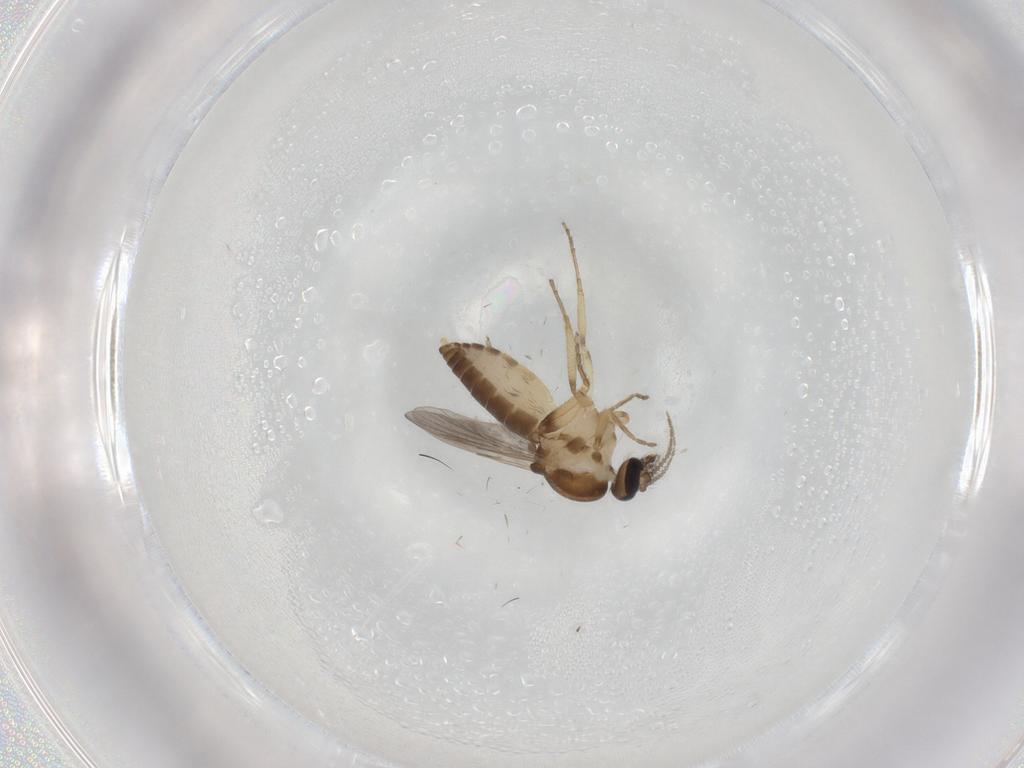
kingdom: Animalia
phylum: Arthropoda
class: Insecta
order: Diptera
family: Ceratopogonidae
